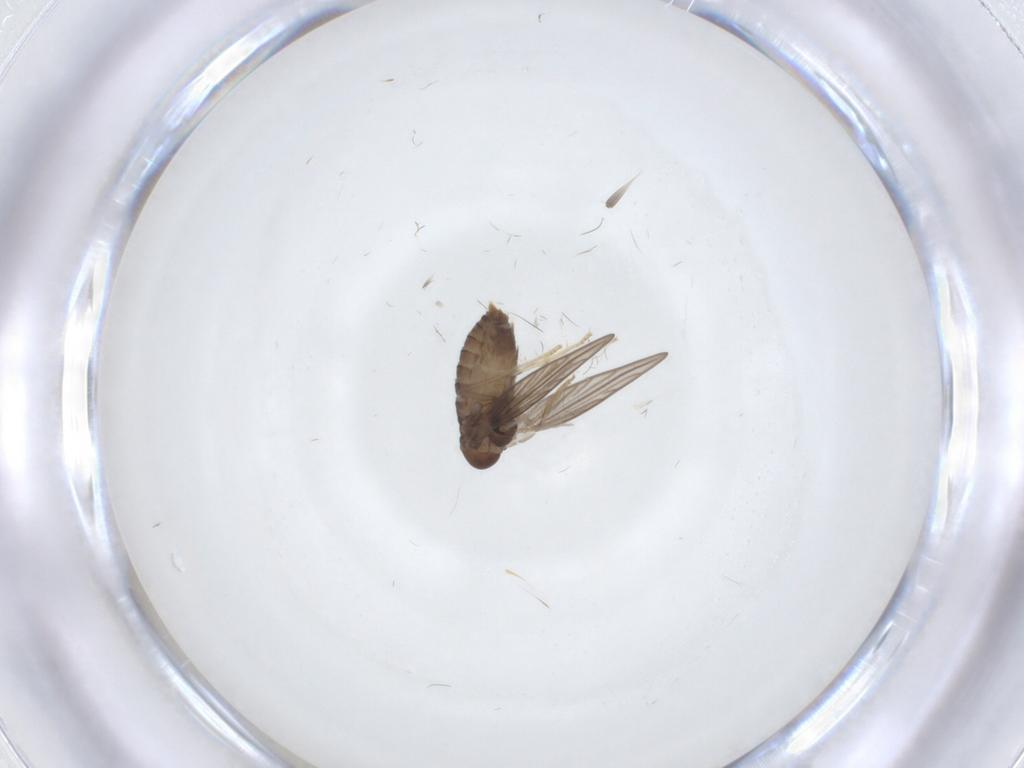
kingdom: Animalia
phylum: Arthropoda
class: Insecta
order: Diptera
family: Psychodidae
